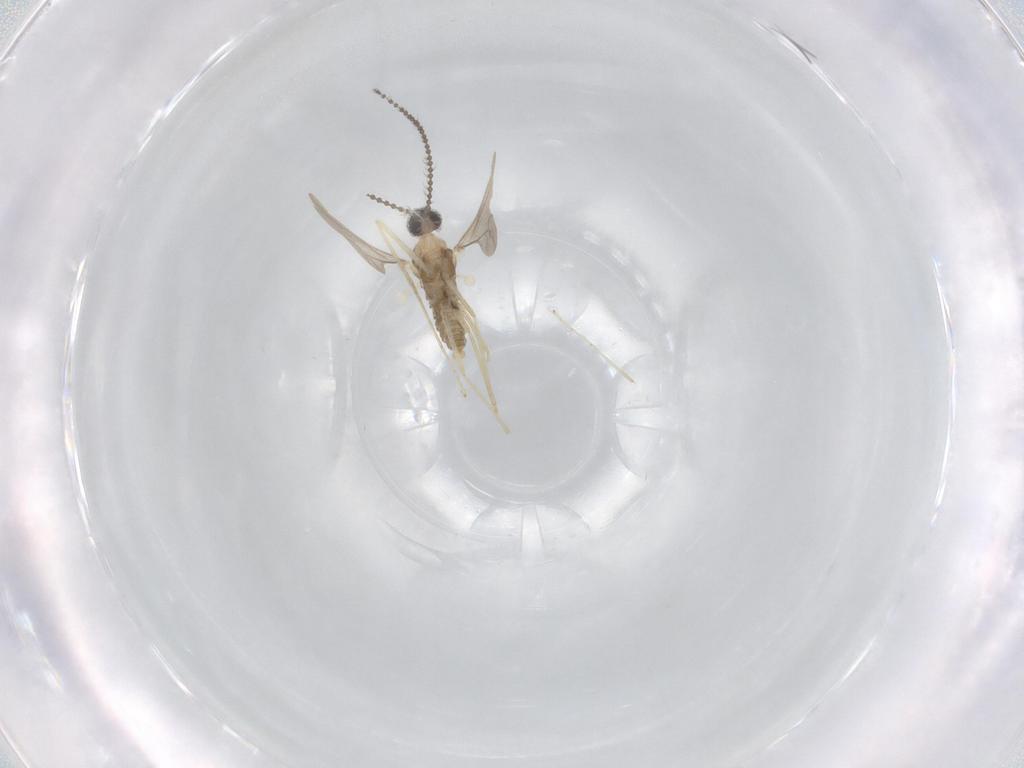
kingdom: Animalia
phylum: Arthropoda
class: Insecta
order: Diptera
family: Cecidomyiidae
